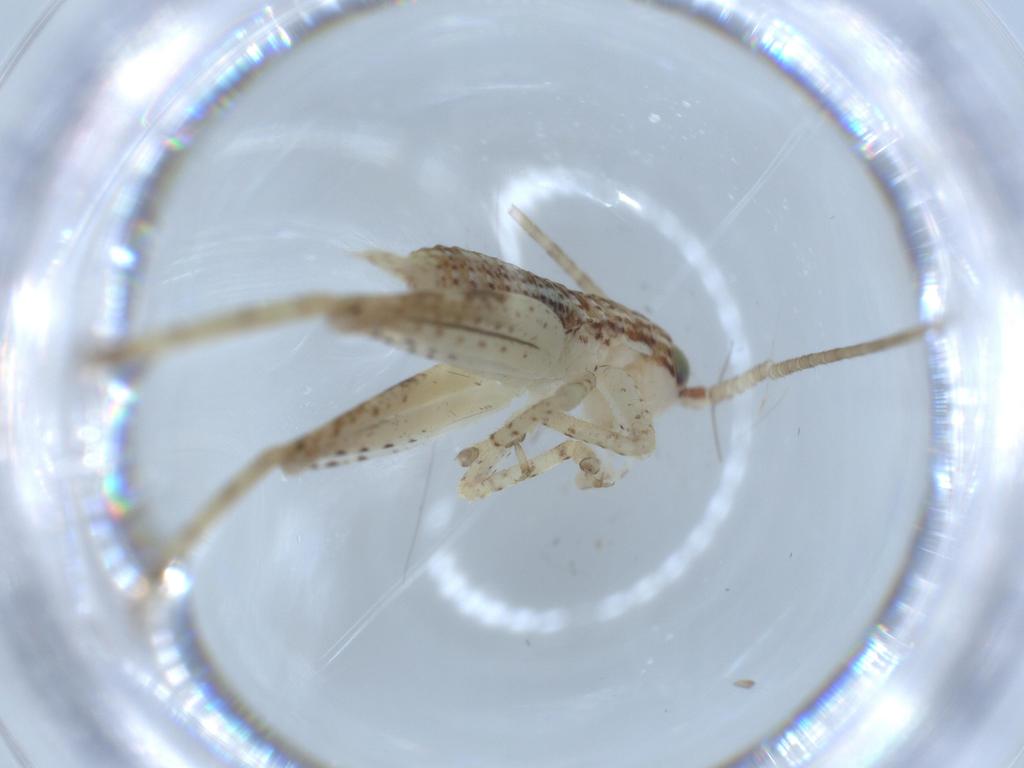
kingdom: Animalia
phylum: Arthropoda
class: Insecta
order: Orthoptera
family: Gryllidae
